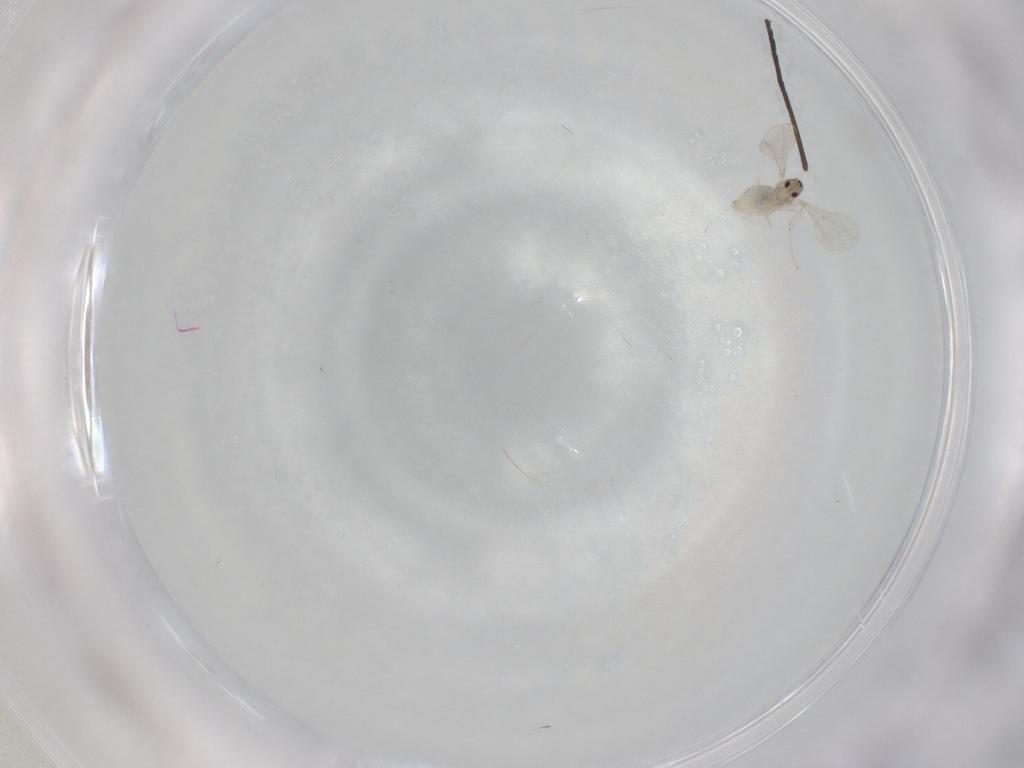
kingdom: Animalia
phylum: Arthropoda
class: Insecta
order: Diptera
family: Cecidomyiidae
